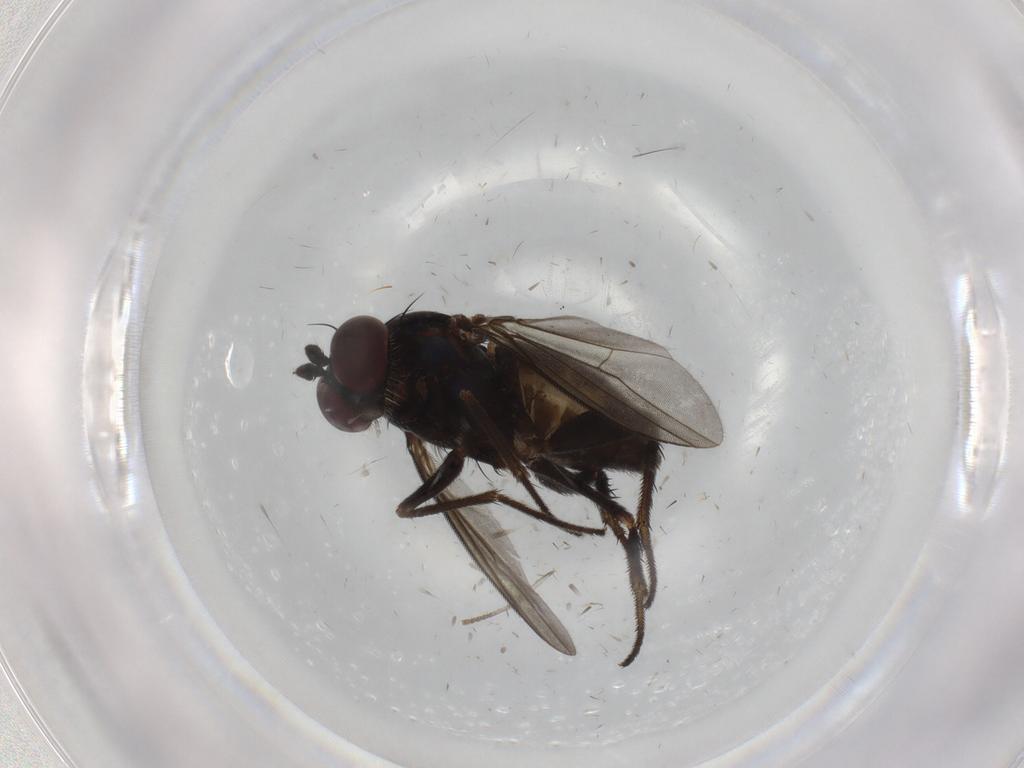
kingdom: Animalia
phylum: Arthropoda
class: Insecta
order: Diptera
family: Dolichopodidae
